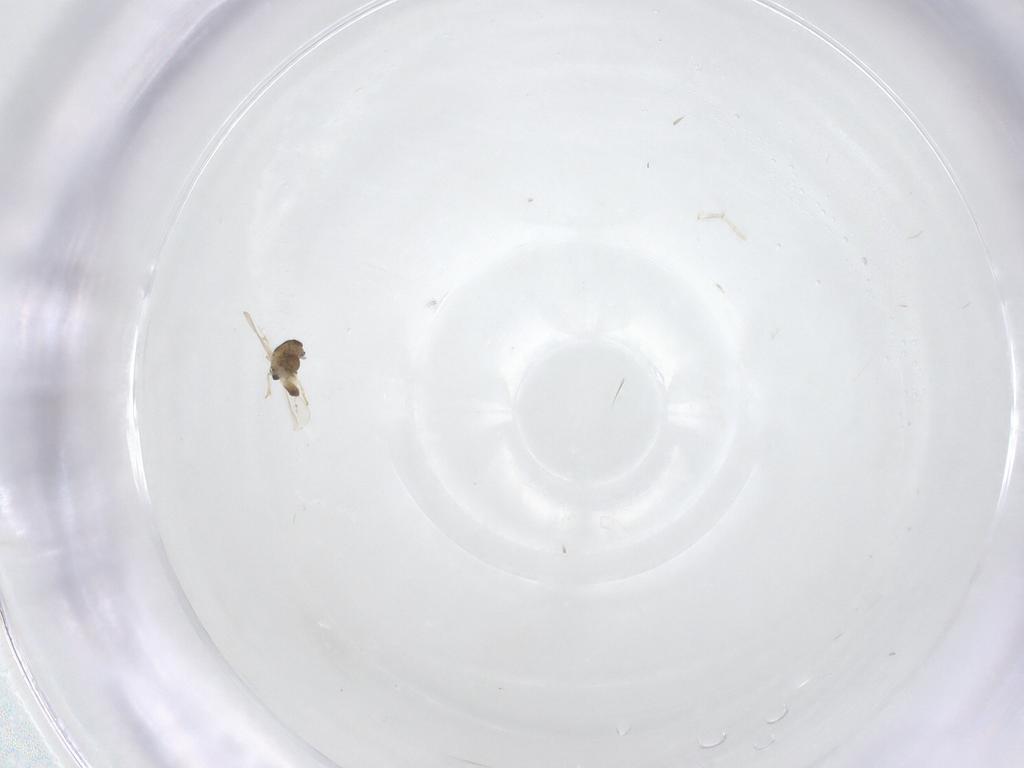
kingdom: Animalia
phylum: Arthropoda
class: Insecta
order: Diptera
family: Chironomidae
